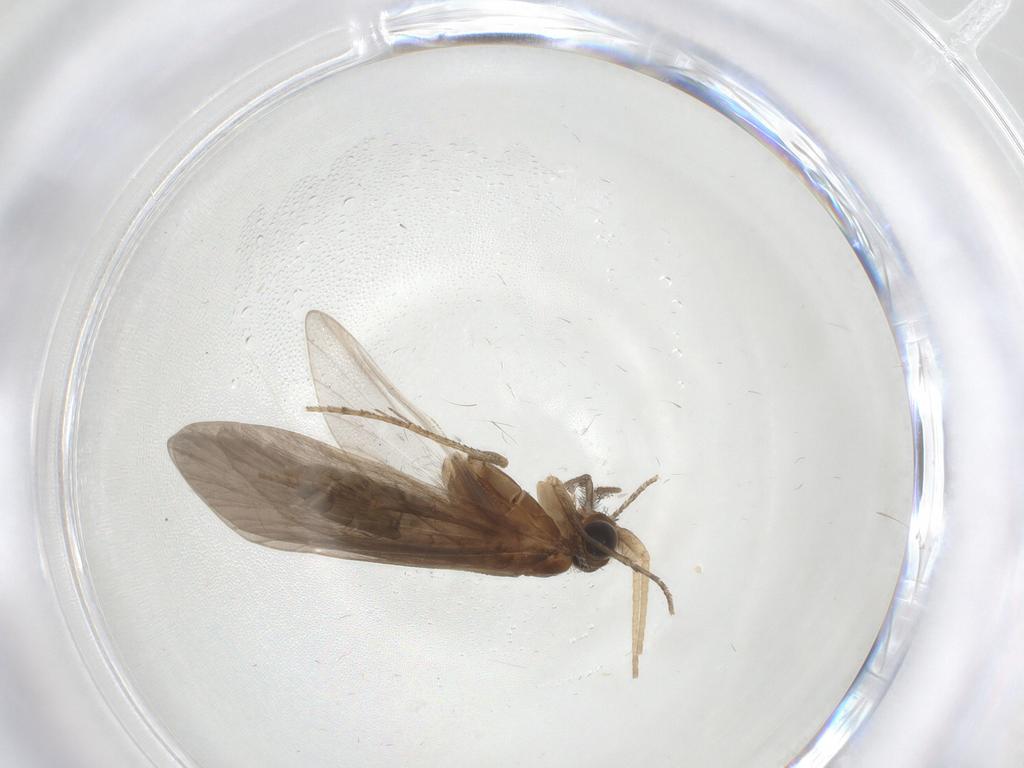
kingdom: Animalia
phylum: Arthropoda
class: Insecta
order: Trichoptera
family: Helicopsychidae
